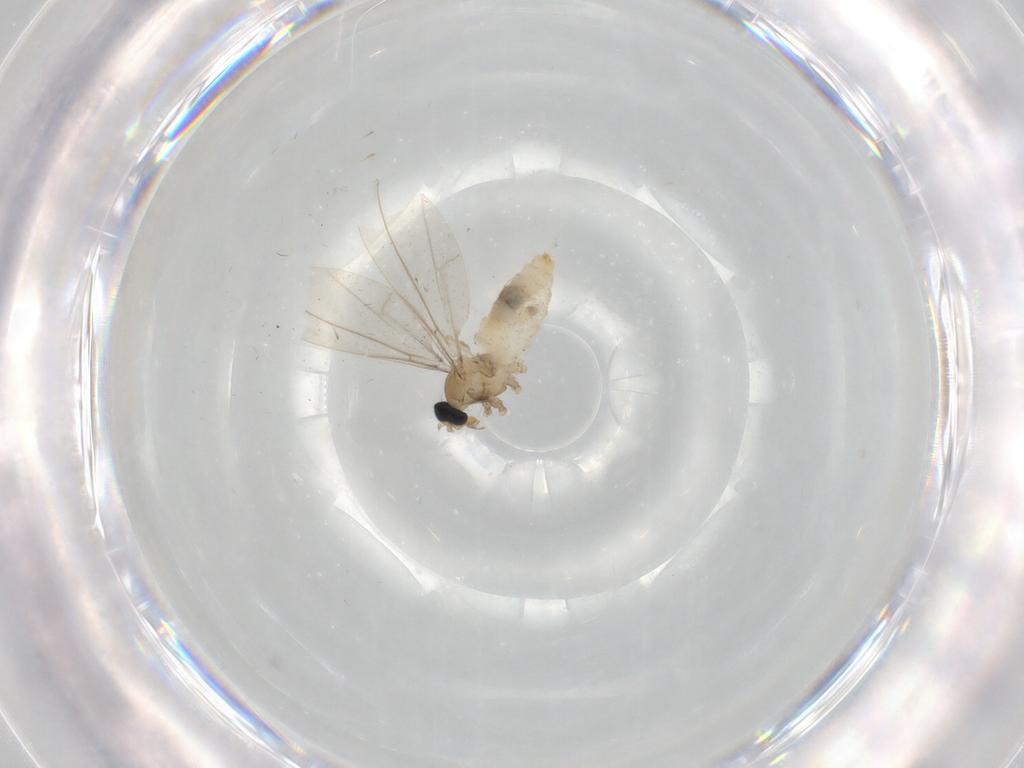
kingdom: Animalia
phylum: Arthropoda
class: Insecta
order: Diptera
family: Cecidomyiidae
